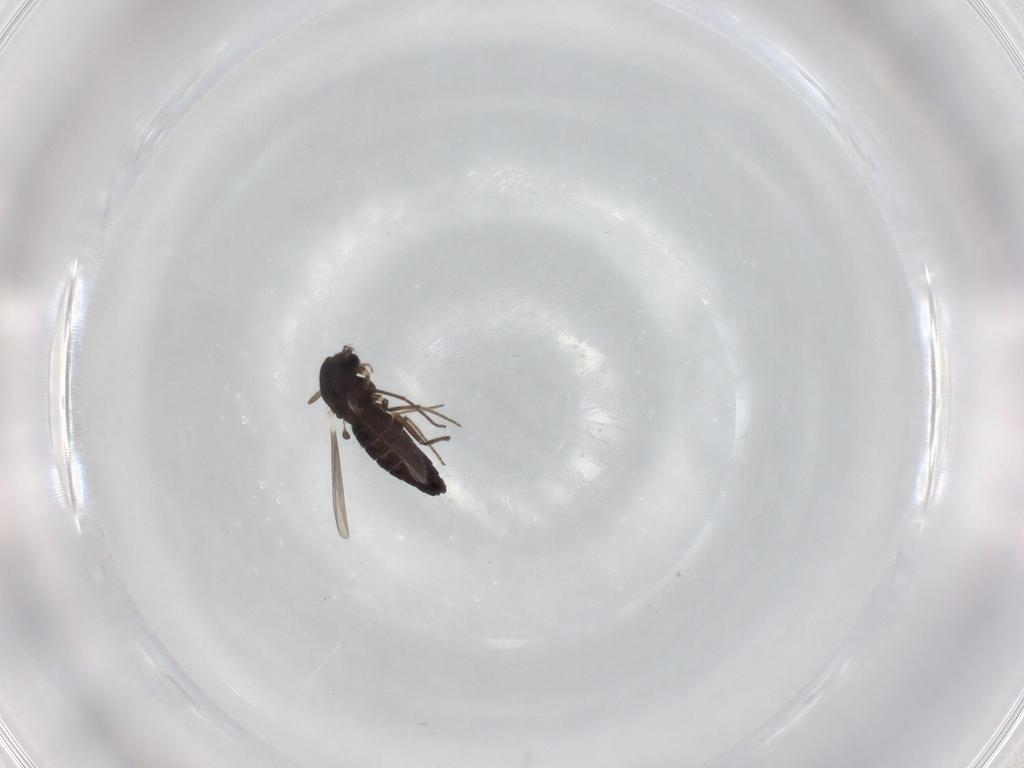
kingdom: Animalia
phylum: Arthropoda
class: Insecta
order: Diptera
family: Chironomidae
